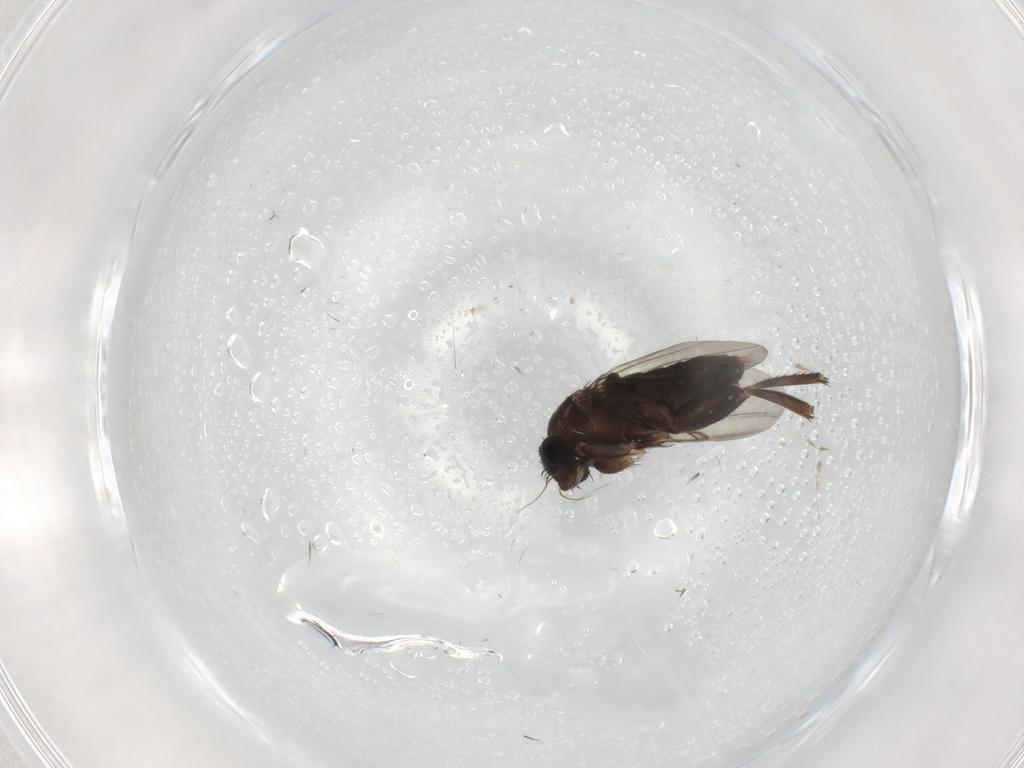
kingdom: Animalia
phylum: Arthropoda
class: Insecta
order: Diptera
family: Phoridae
